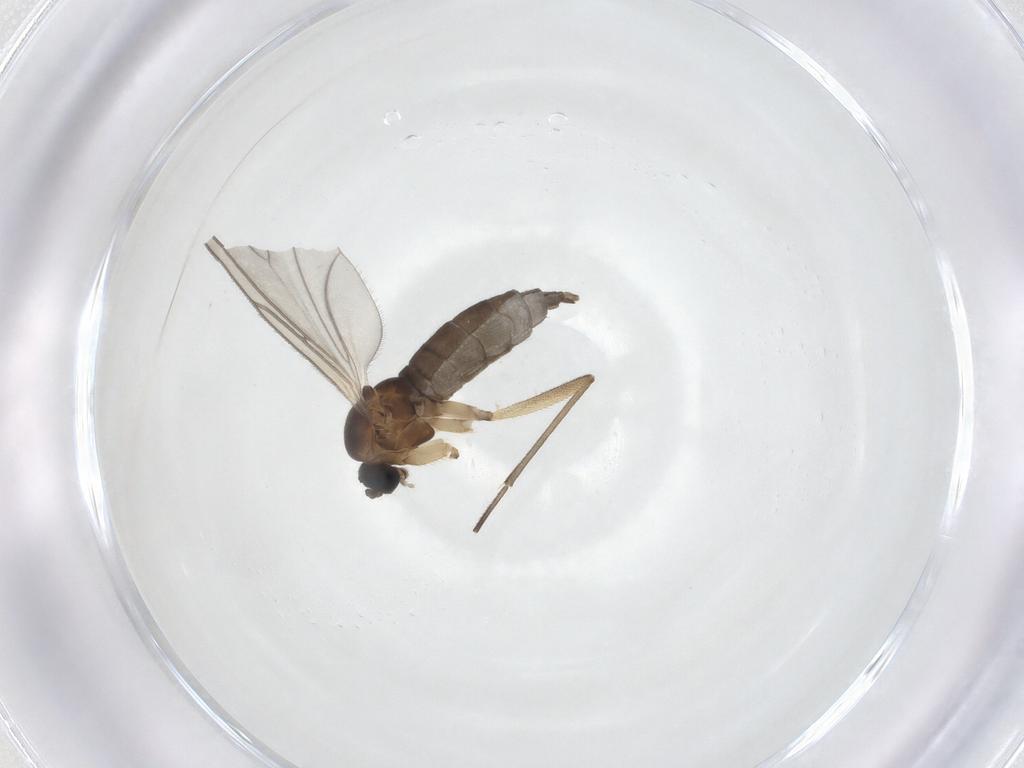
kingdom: Animalia
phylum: Arthropoda
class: Insecta
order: Diptera
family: Sciaridae
